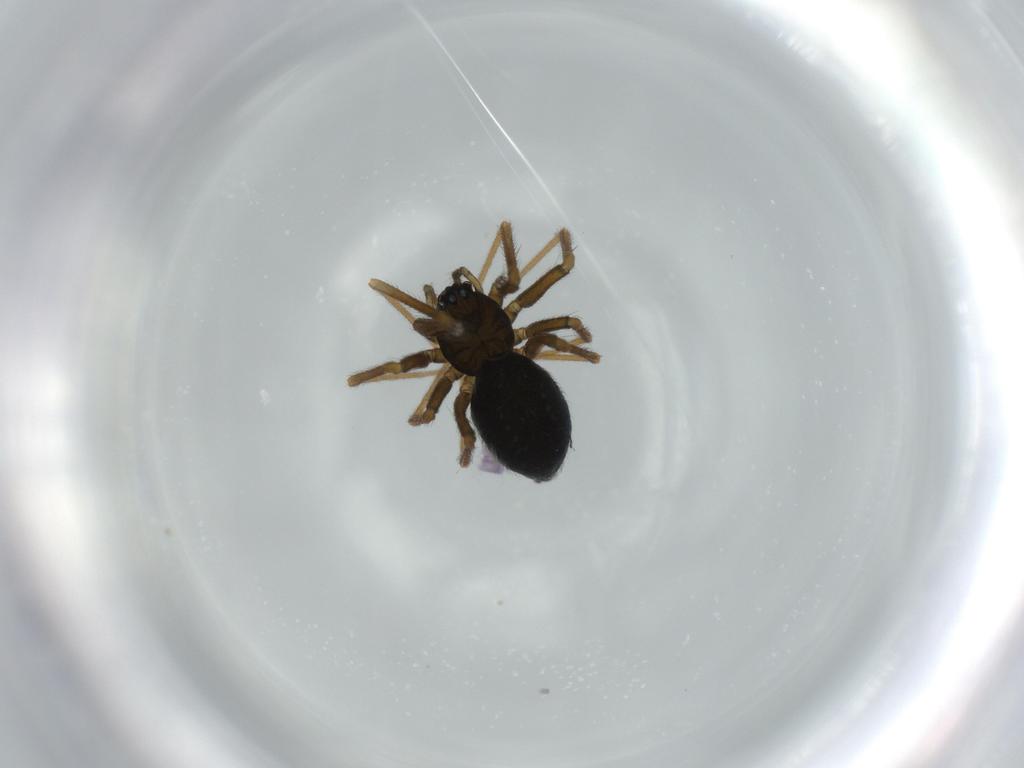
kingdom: Animalia
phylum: Arthropoda
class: Arachnida
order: Araneae
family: Linyphiidae
